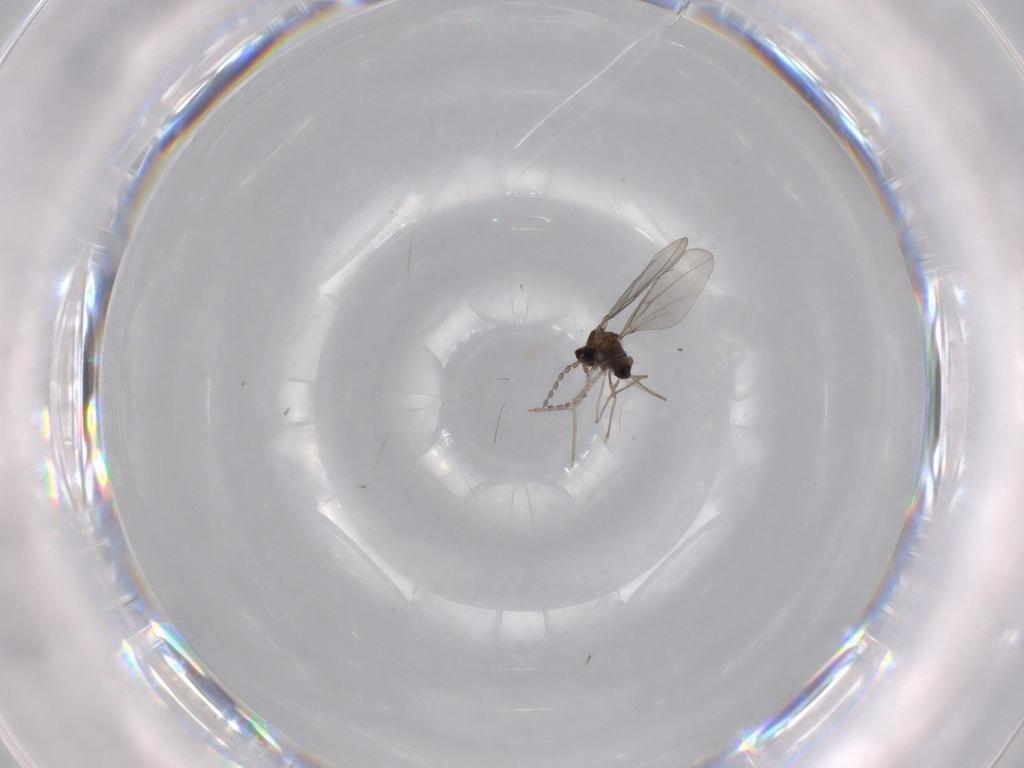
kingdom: Animalia
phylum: Arthropoda
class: Insecta
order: Diptera
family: Cecidomyiidae
